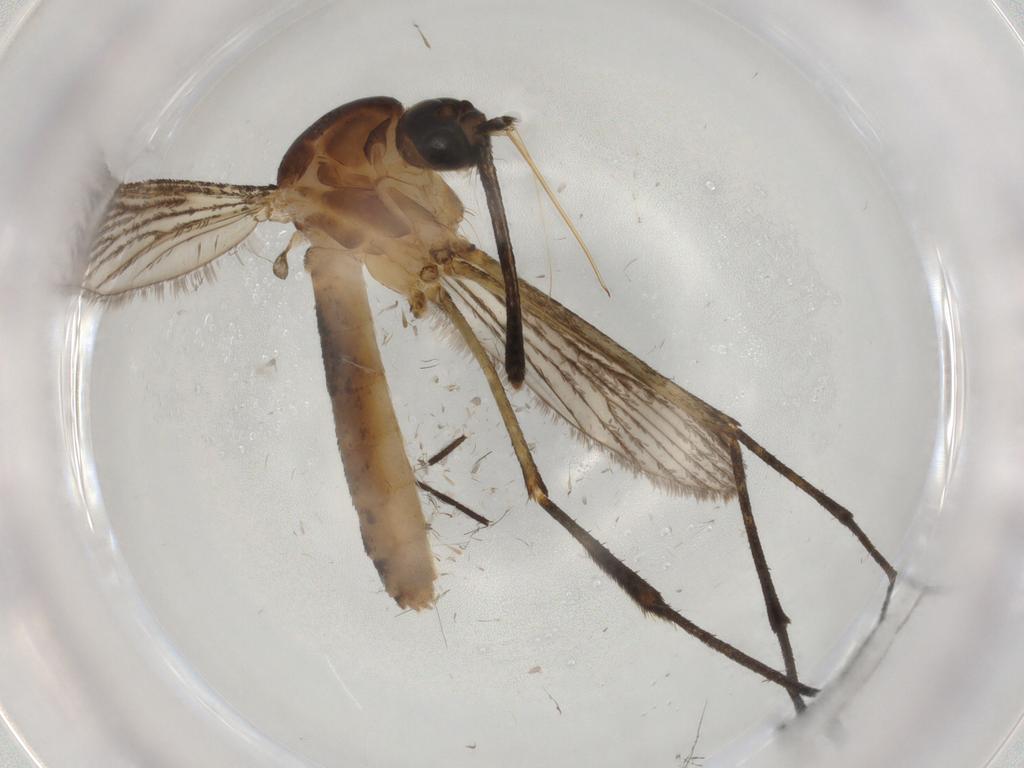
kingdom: Animalia
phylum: Arthropoda
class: Insecta
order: Diptera
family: Culicidae
